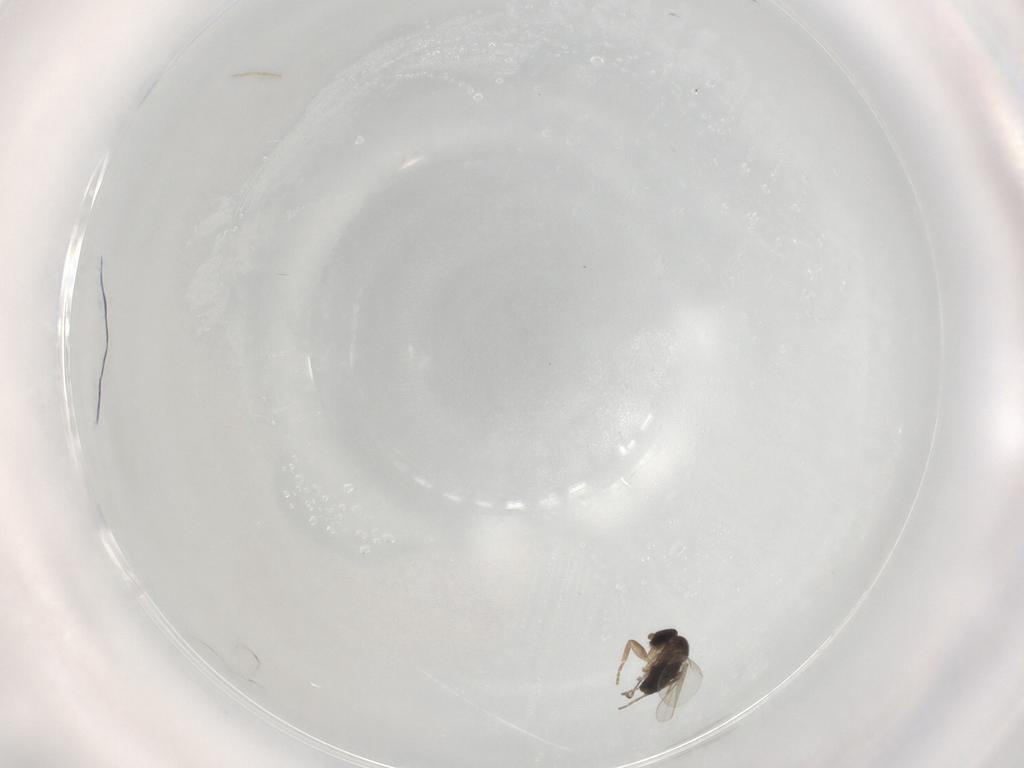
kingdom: Animalia
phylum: Arthropoda
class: Insecta
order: Diptera
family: Phoridae
